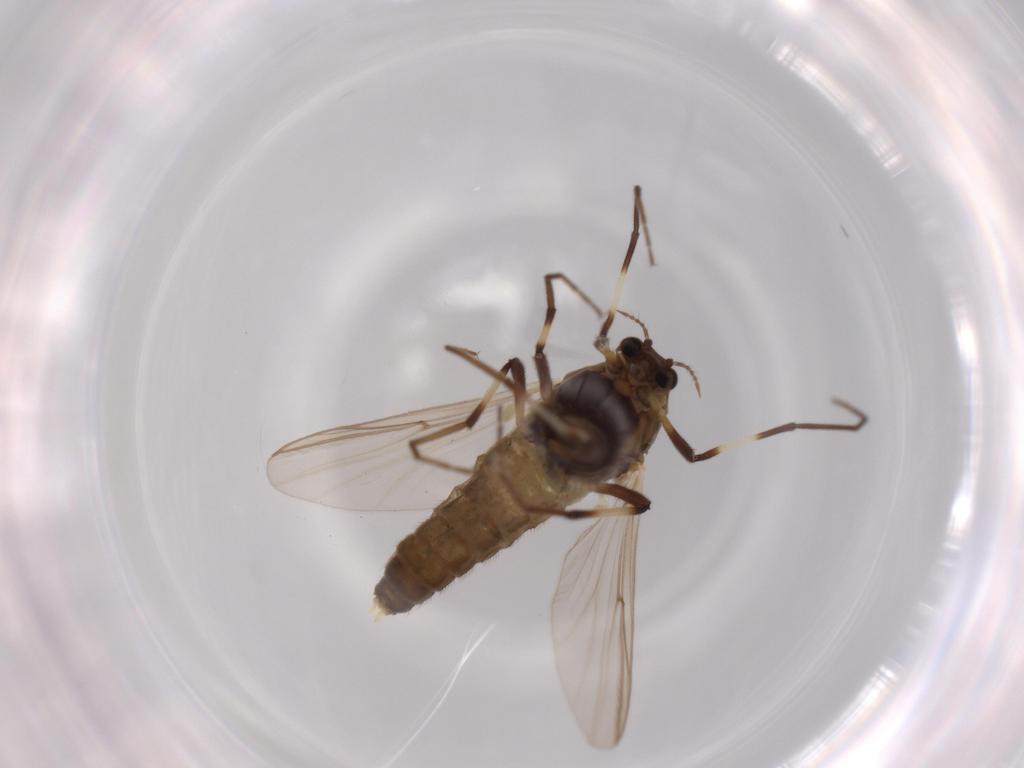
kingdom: Animalia
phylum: Arthropoda
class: Insecta
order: Diptera
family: Tipulidae
